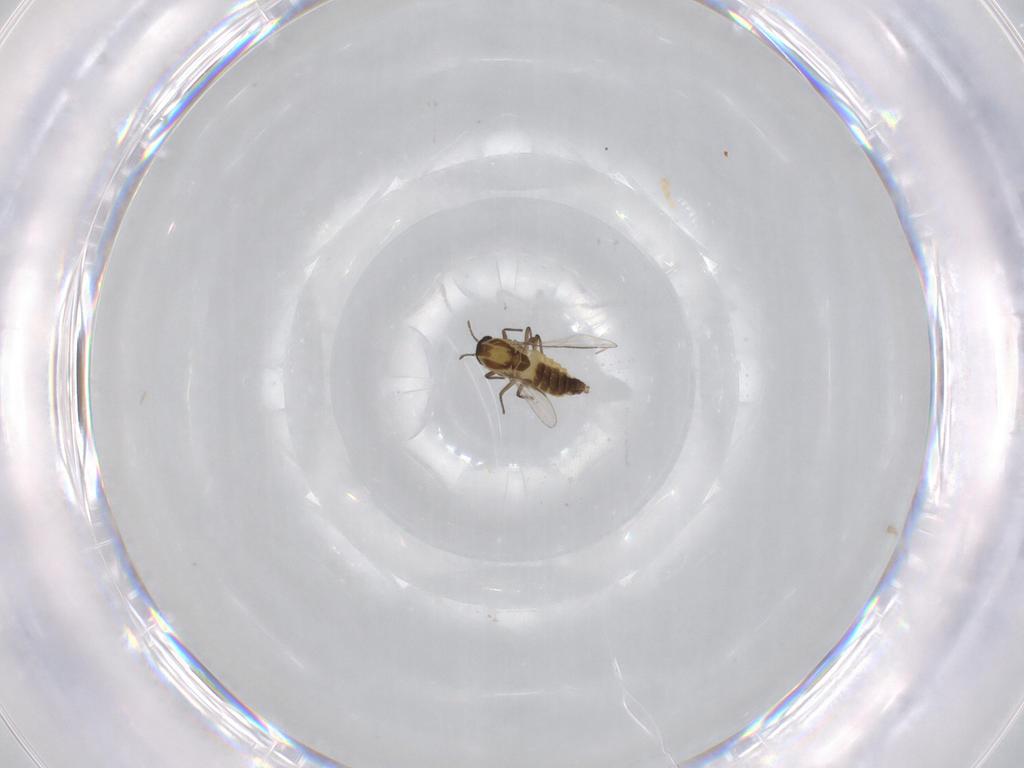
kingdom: Animalia
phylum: Arthropoda
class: Insecta
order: Diptera
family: Chironomidae
